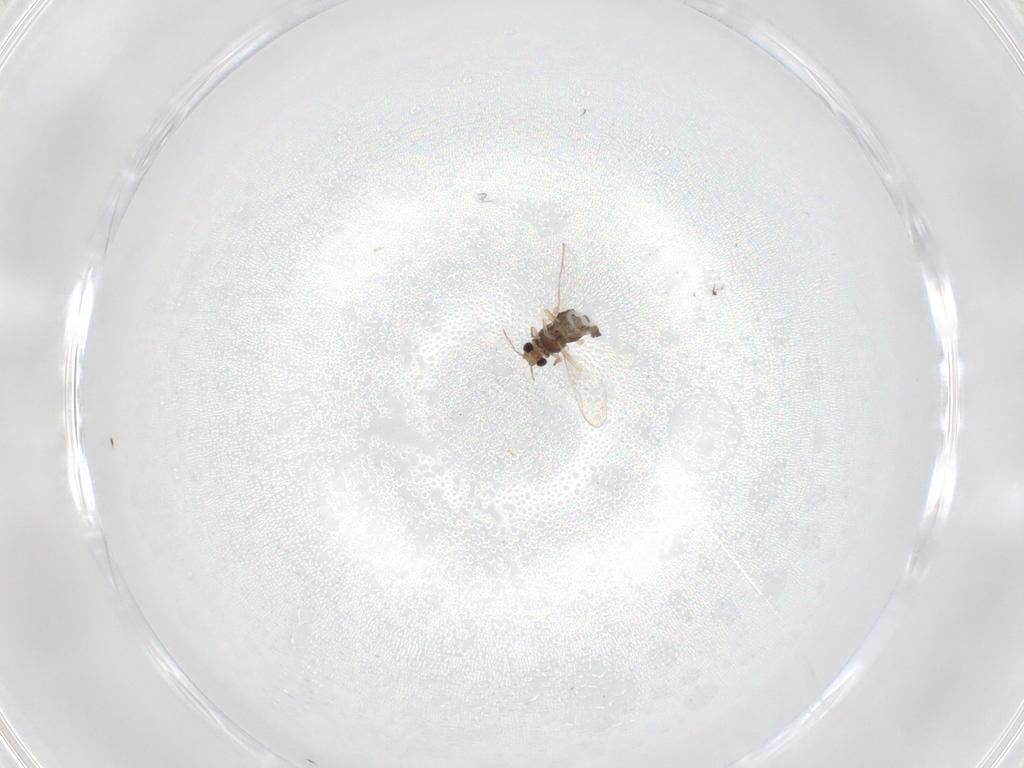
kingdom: Animalia
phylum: Arthropoda
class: Insecta
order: Diptera
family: Chironomidae
